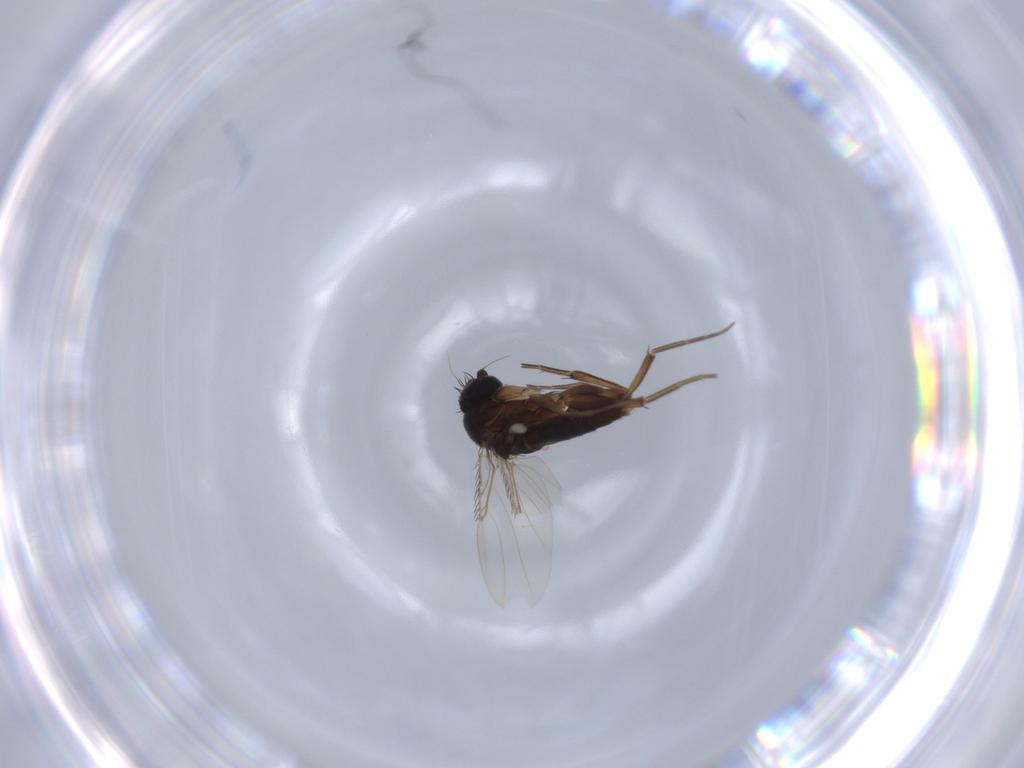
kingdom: Animalia
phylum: Arthropoda
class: Insecta
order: Diptera
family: Phoridae
